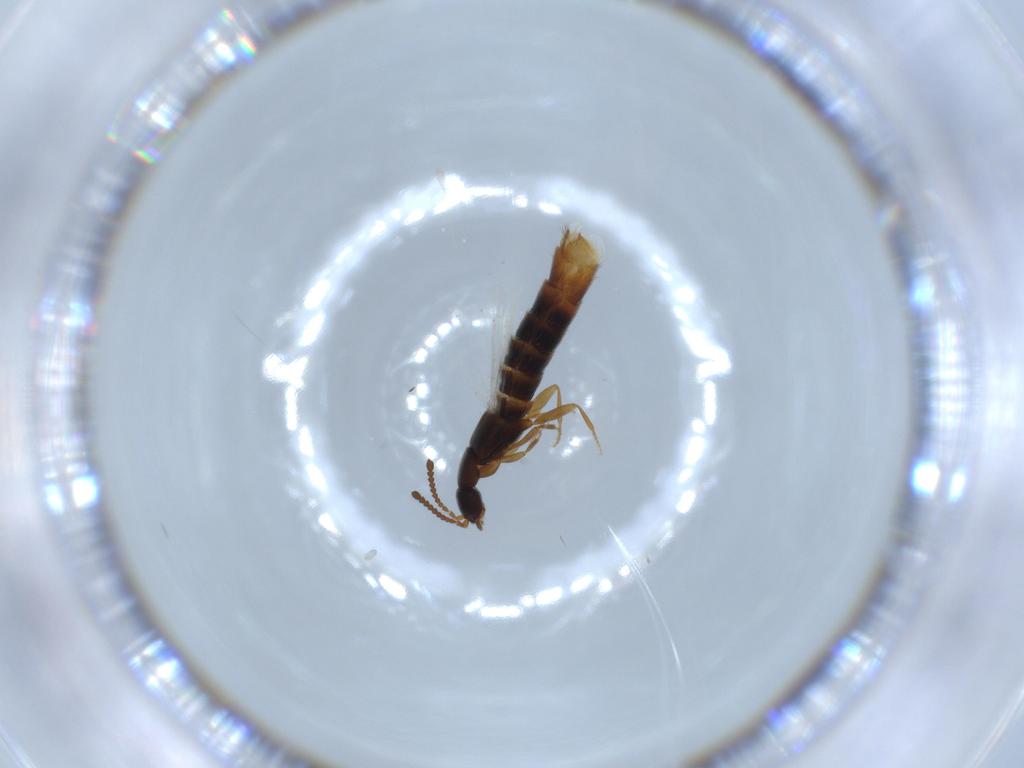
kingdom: Animalia
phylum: Arthropoda
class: Insecta
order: Coleoptera
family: Staphylinidae
